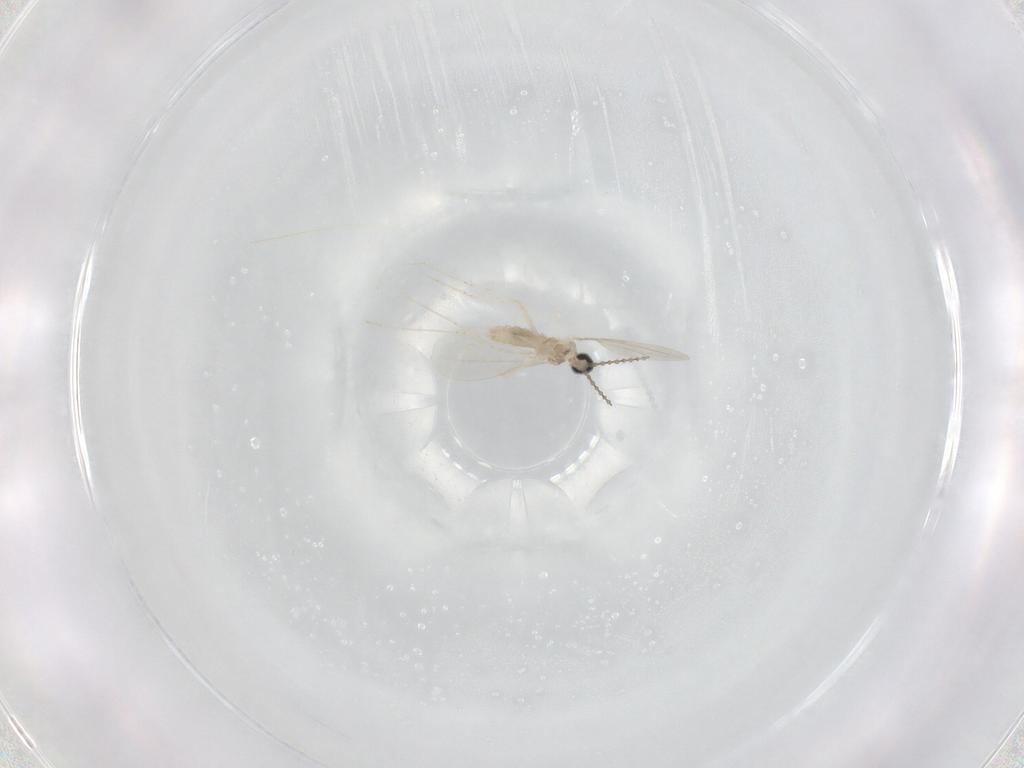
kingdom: Animalia
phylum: Arthropoda
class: Insecta
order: Diptera
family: Cecidomyiidae
